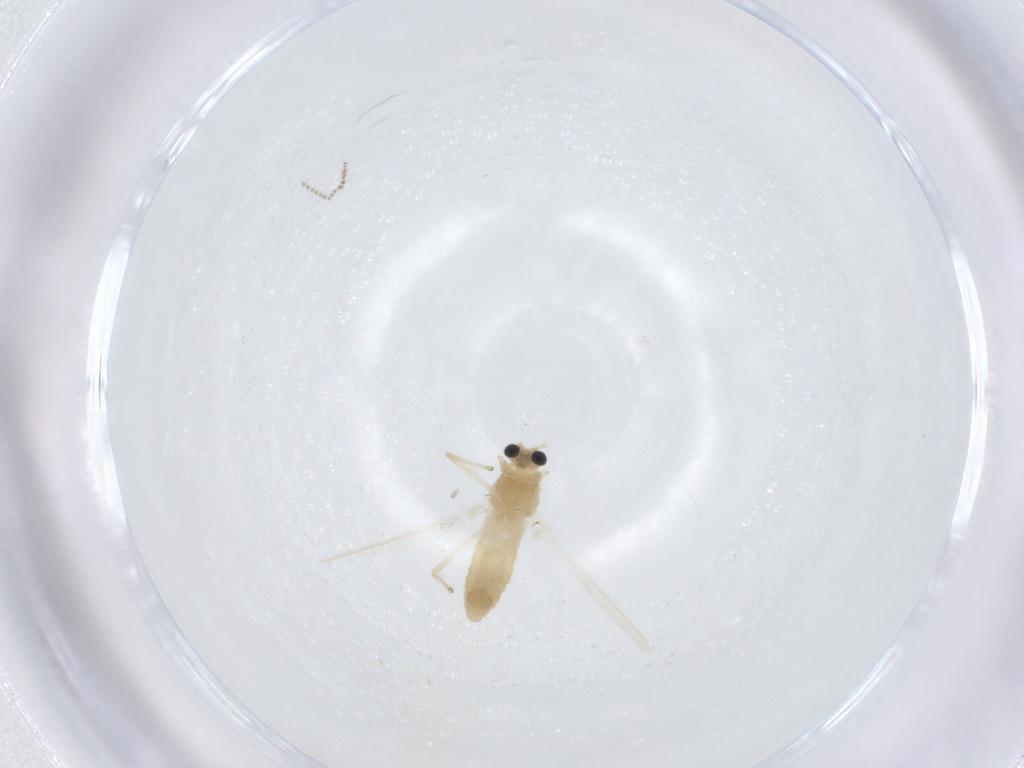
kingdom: Animalia
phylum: Arthropoda
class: Insecta
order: Diptera
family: Chironomidae
